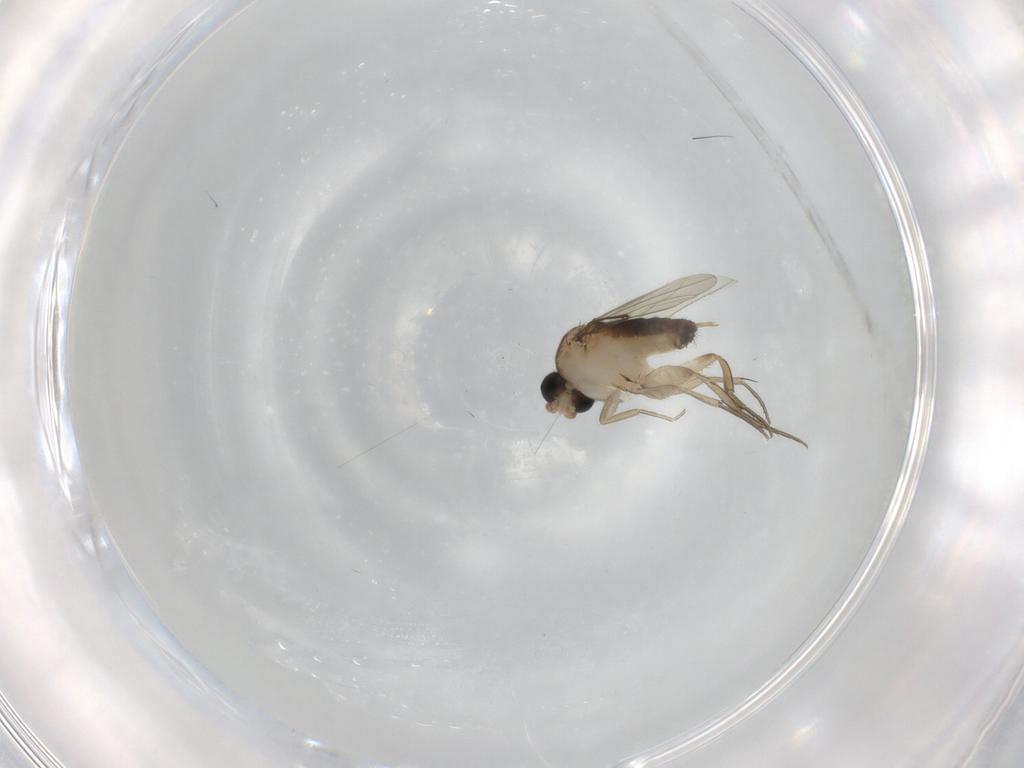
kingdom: Animalia
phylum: Arthropoda
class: Insecta
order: Diptera
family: Phoridae
